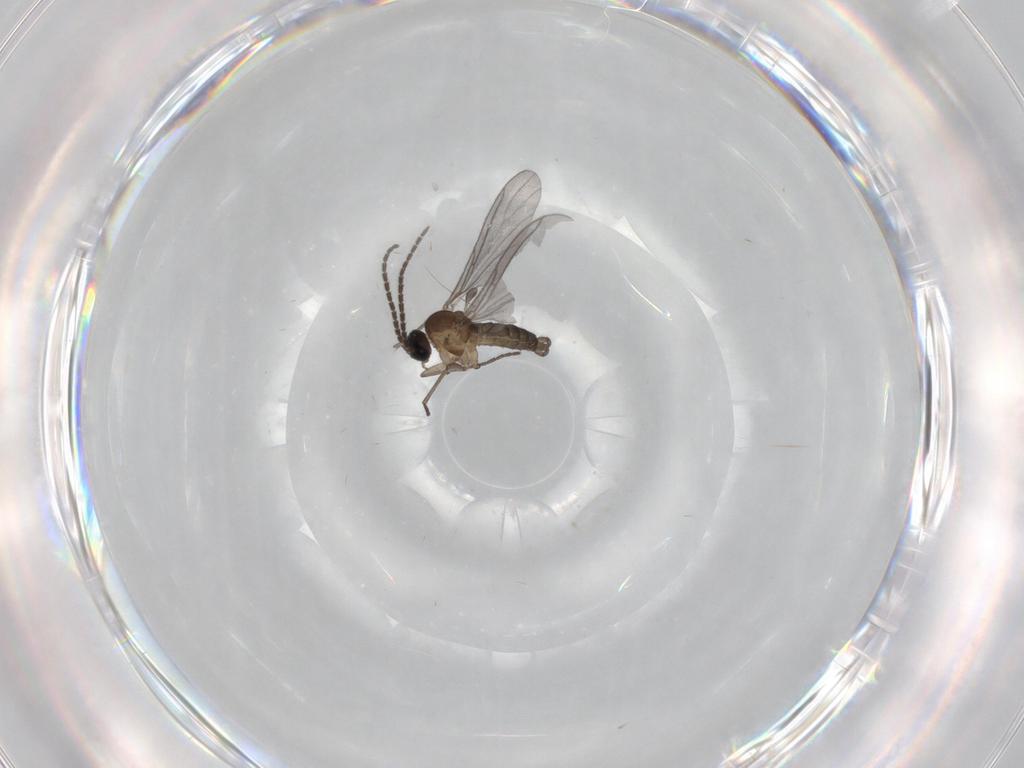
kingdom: Animalia
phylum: Arthropoda
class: Insecta
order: Diptera
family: Sciaridae
